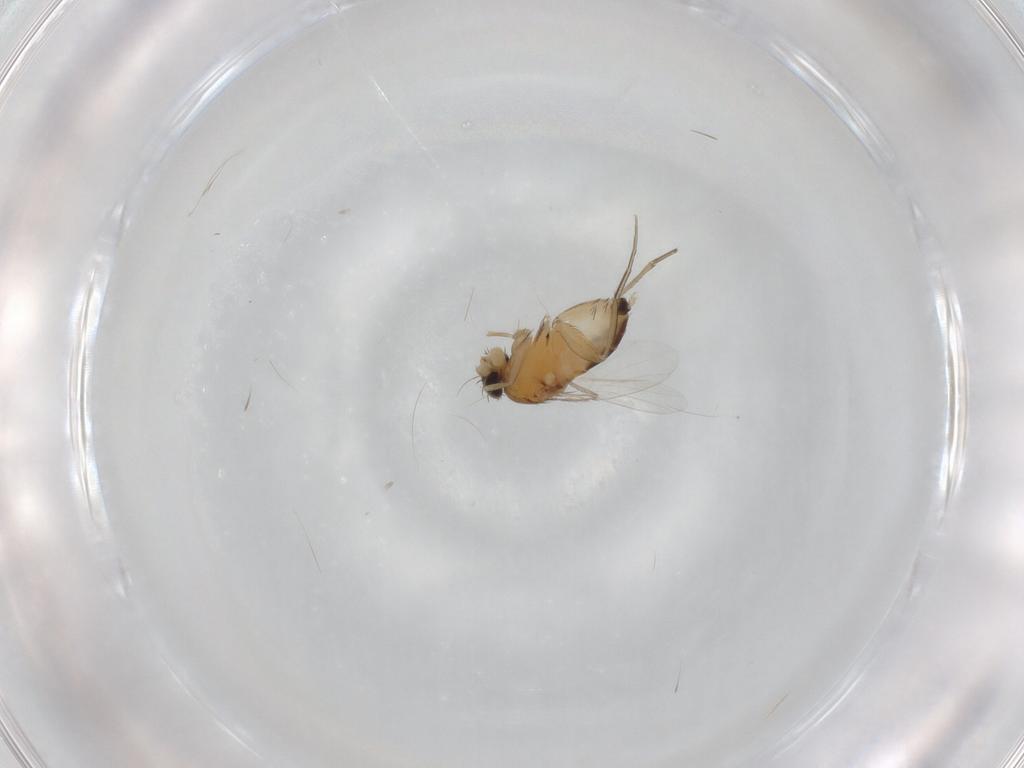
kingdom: Animalia
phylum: Arthropoda
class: Insecta
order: Diptera
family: Phoridae
